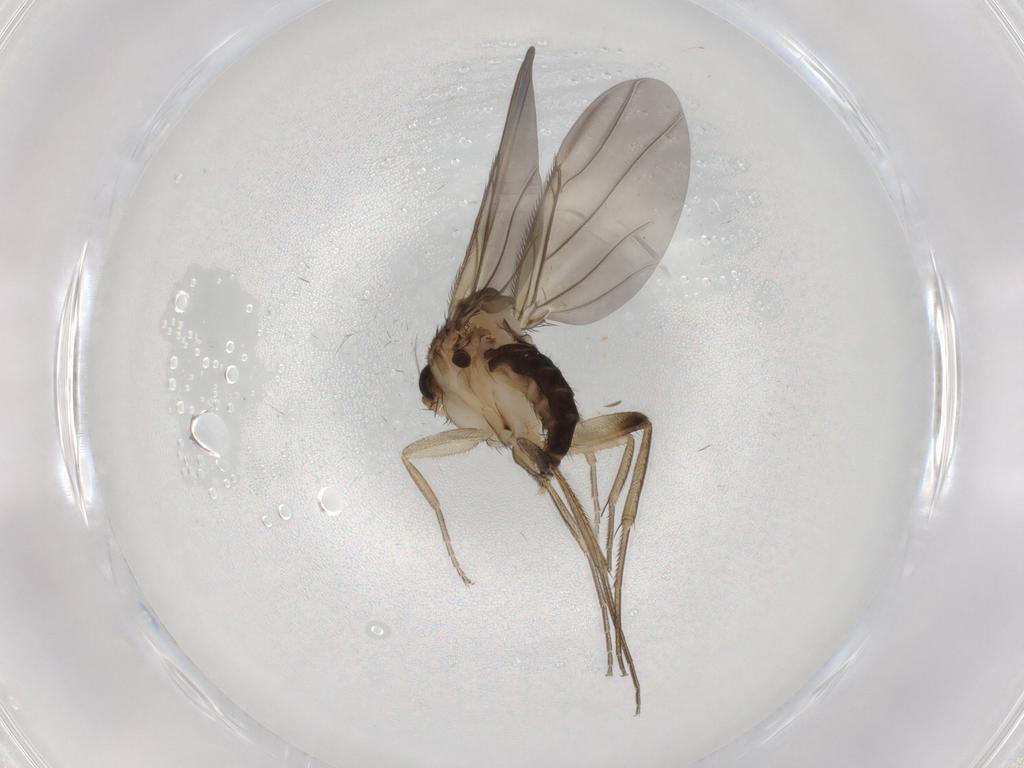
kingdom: Animalia
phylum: Arthropoda
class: Insecta
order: Diptera
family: Phoridae
